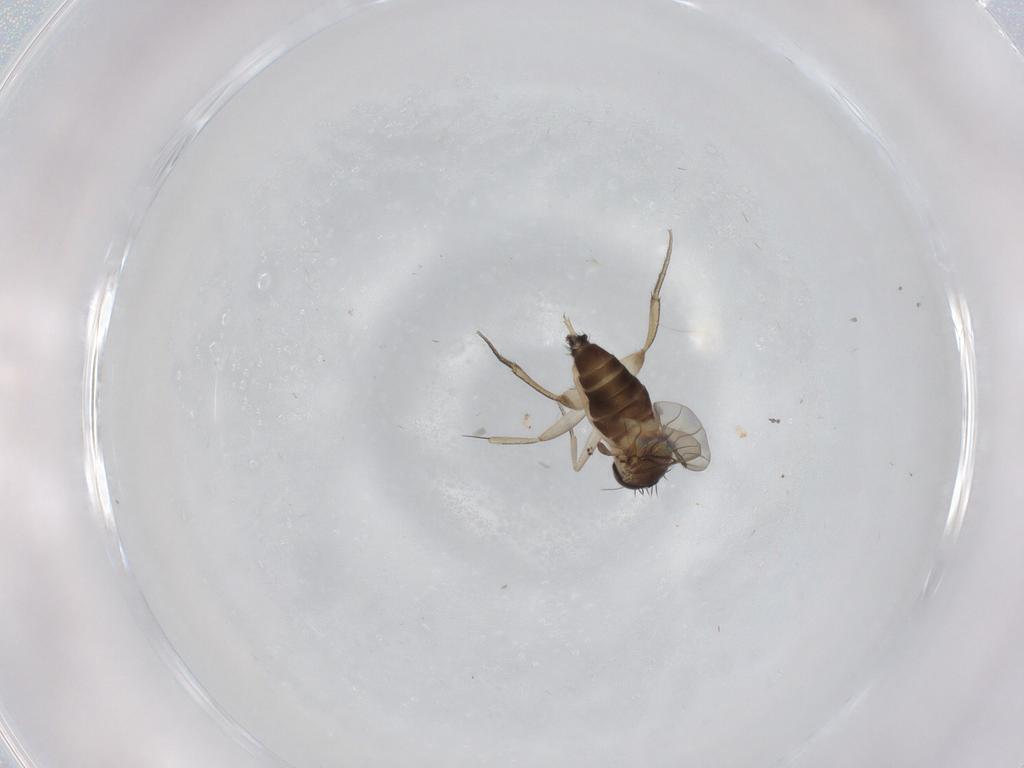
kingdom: Animalia
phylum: Arthropoda
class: Insecta
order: Diptera
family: Phoridae
